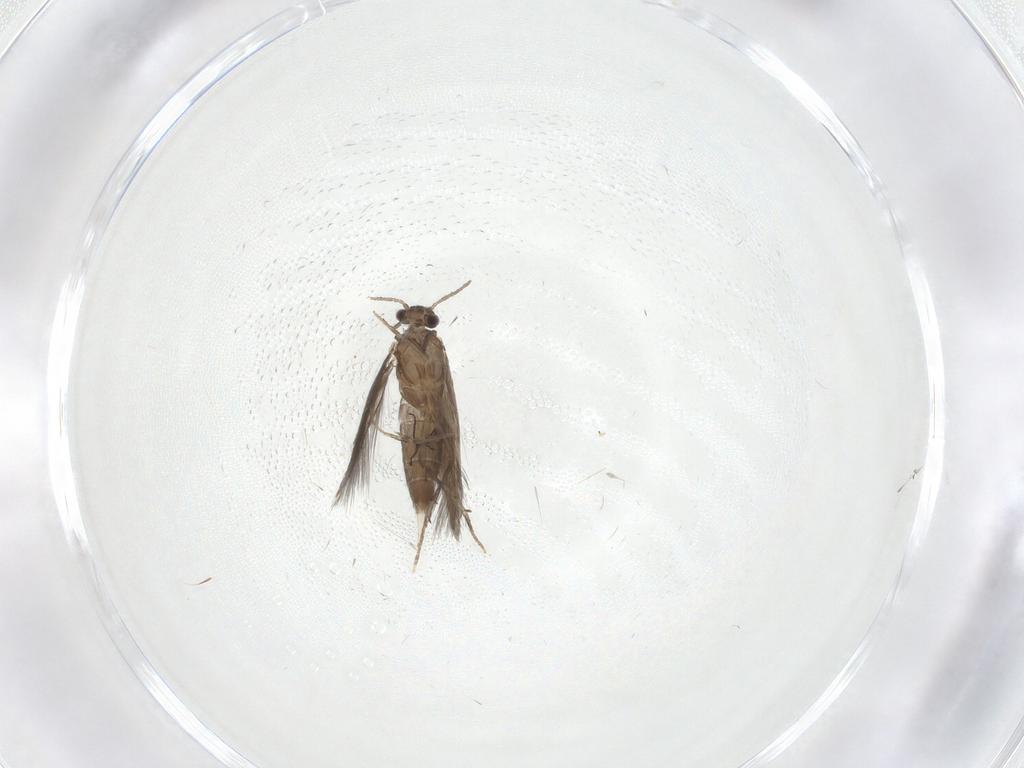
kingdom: Animalia
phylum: Arthropoda
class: Insecta
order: Trichoptera
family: Hydroptilidae
